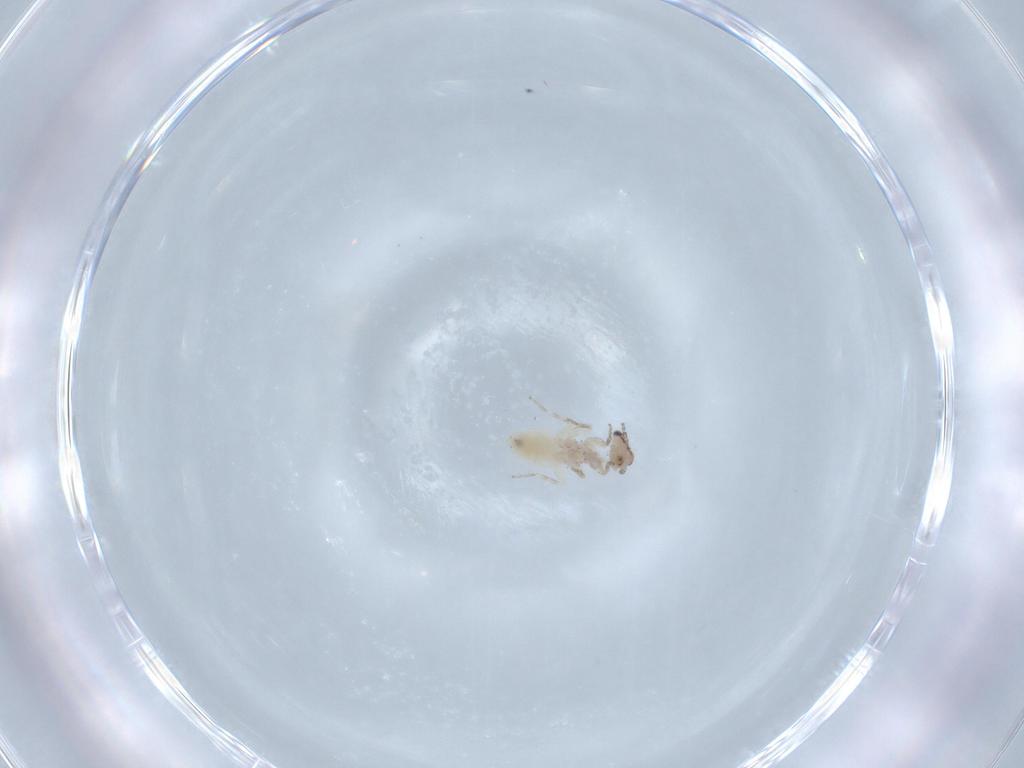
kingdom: Animalia
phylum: Arthropoda
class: Insecta
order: Psocodea
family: Lepidopsocidae
